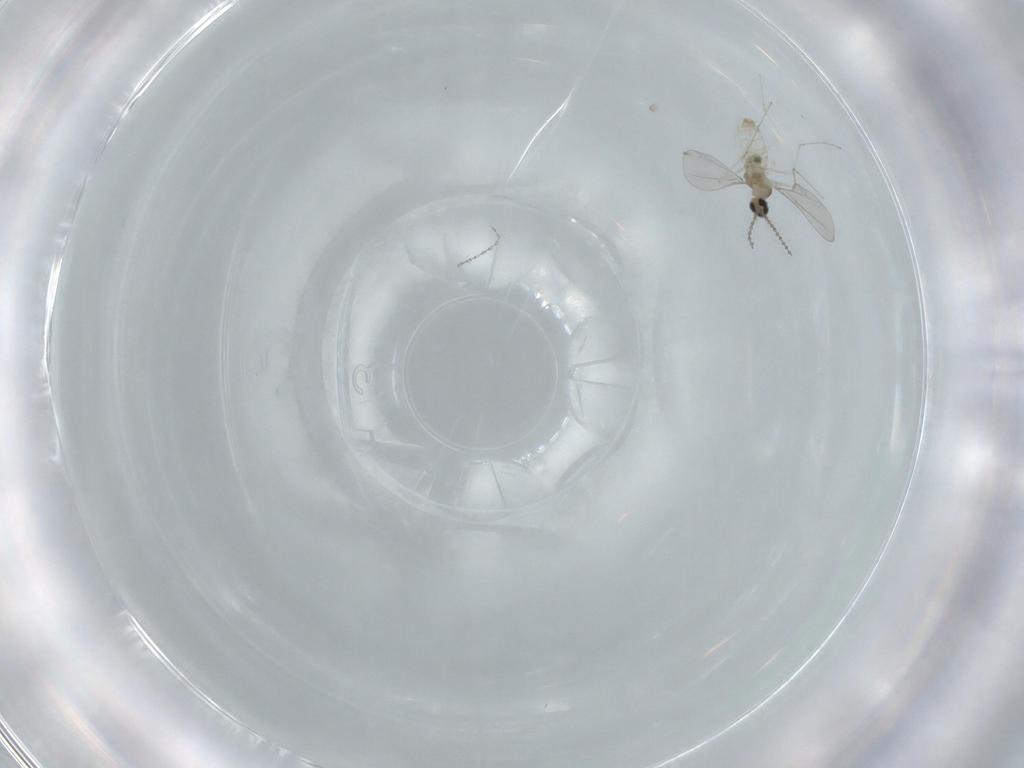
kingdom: Animalia
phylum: Arthropoda
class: Insecta
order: Diptera
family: Cecidomyiidae
